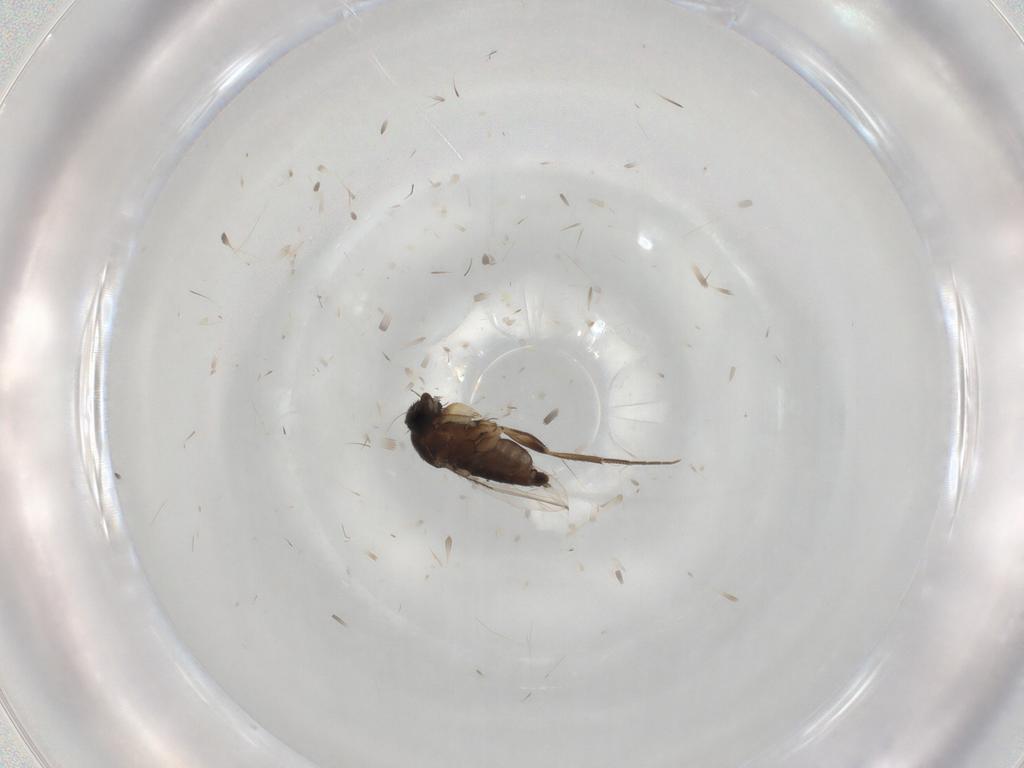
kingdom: Animalia
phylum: Arthropoda
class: Insecta
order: Diptera
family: Phoridae
